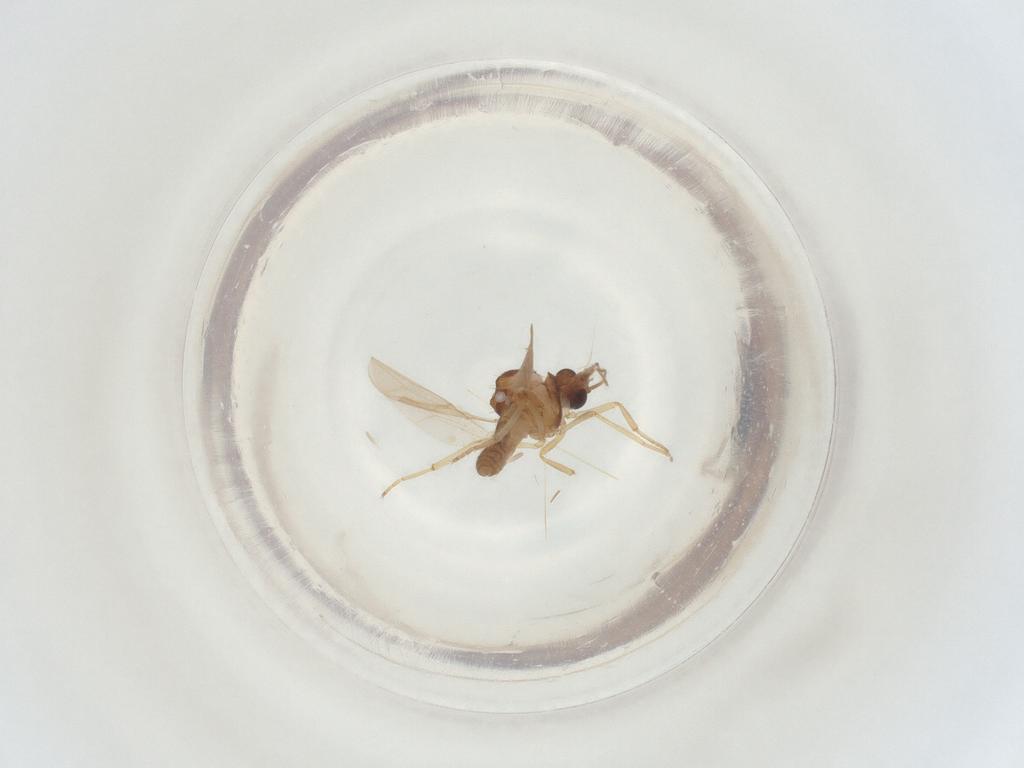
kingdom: Animalia
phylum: Arthropoda
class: Insecta
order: Diptera
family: Ceratopogonidae
